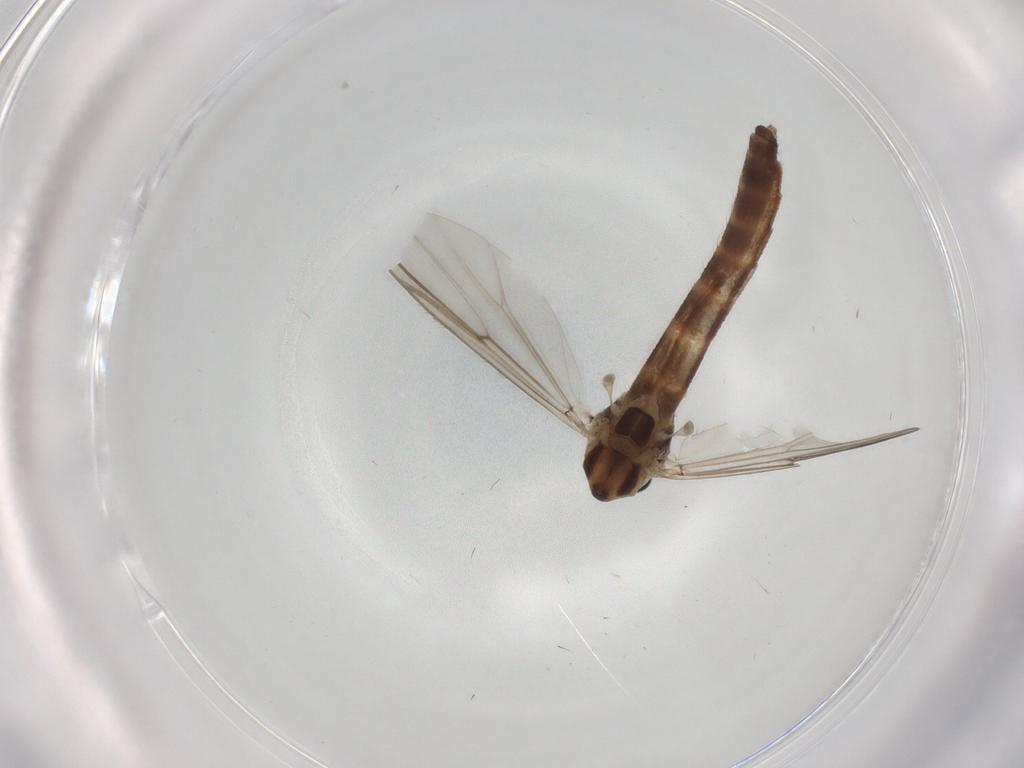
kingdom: Animalia
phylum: Arthropoda
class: Insecta
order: Diptera
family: Chironomidae
